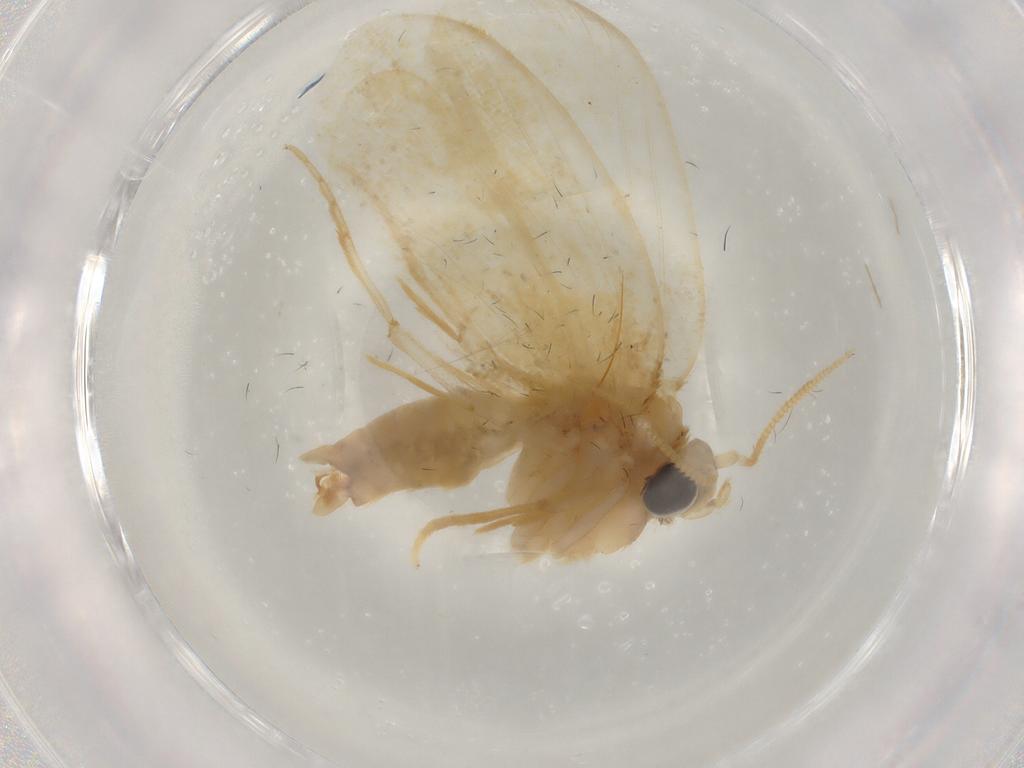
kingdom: Animalia
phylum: Arthropoda
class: Insecta
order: Lepidoptera
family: Psychidae
